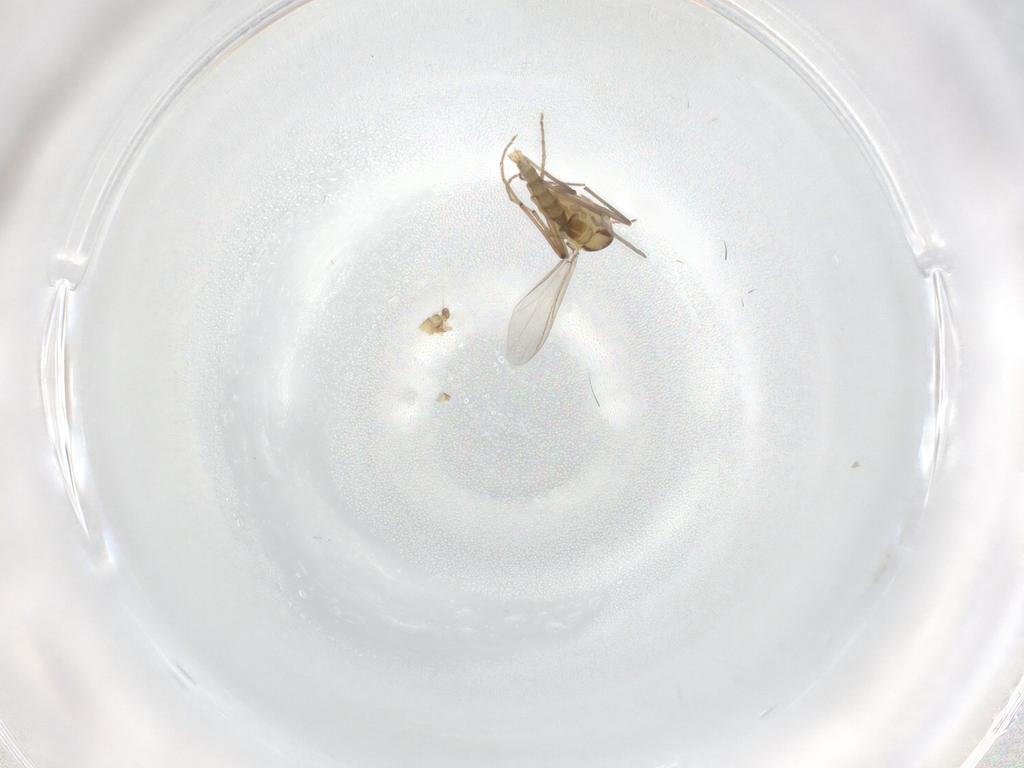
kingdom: Animalia
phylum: Arthropoda
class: Insecta
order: Diptera
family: Chironomidae
